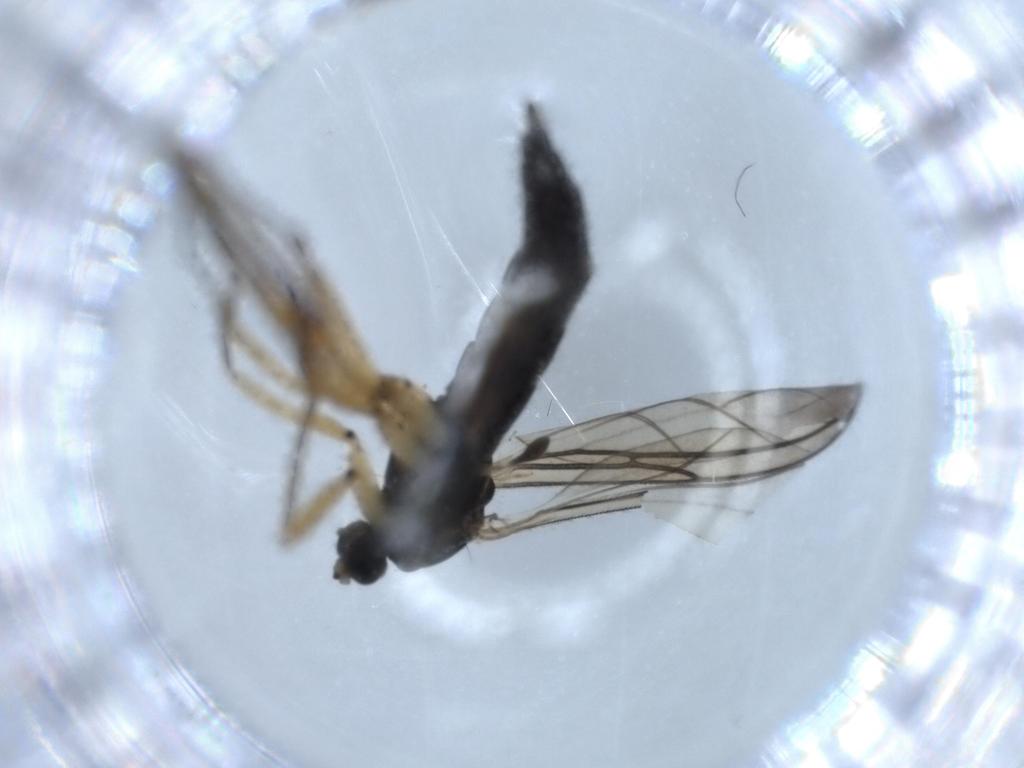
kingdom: Animalia
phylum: Arthropoda
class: Insecta
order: Diptera
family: Sciaridae
